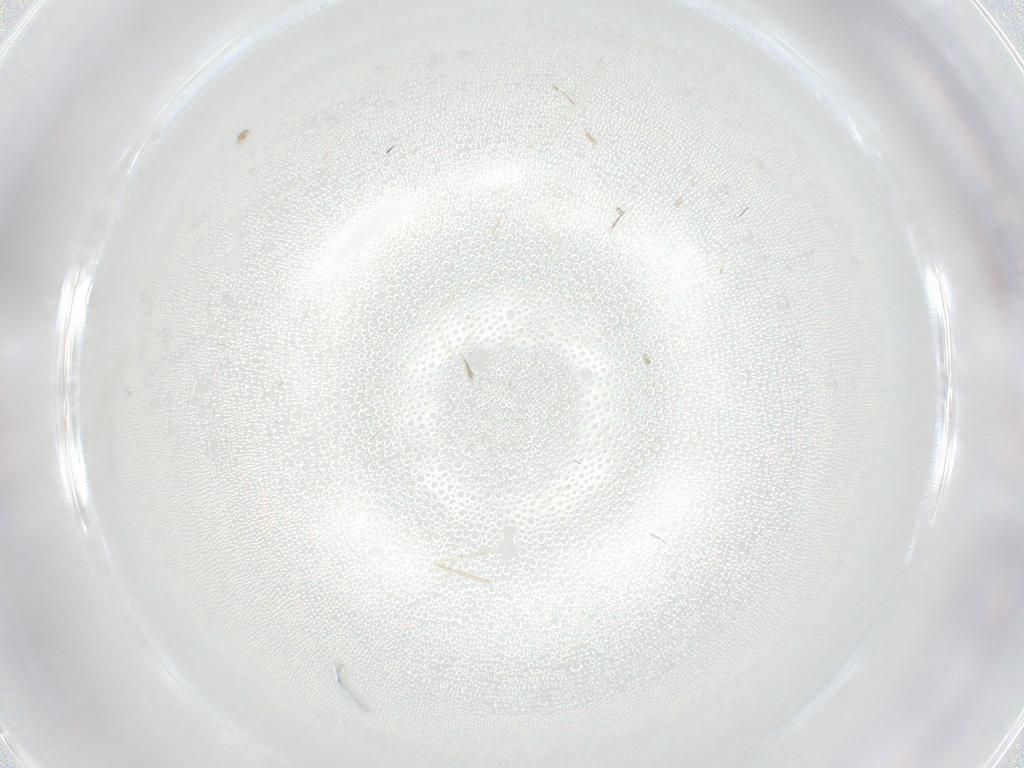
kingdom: Animalia
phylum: Arthropoda
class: Insecta
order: Diptera
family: Cecidomyiidae
